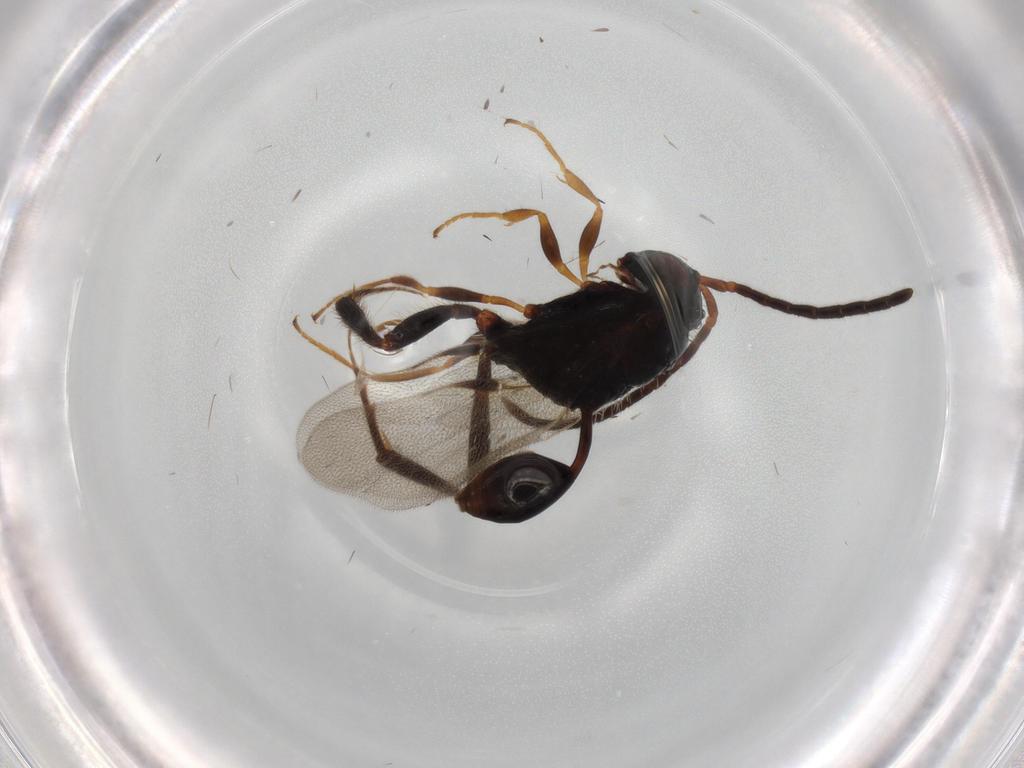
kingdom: Animalia
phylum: Arthropoda
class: Insecta
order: Hymenoptera
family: Evaniidae
